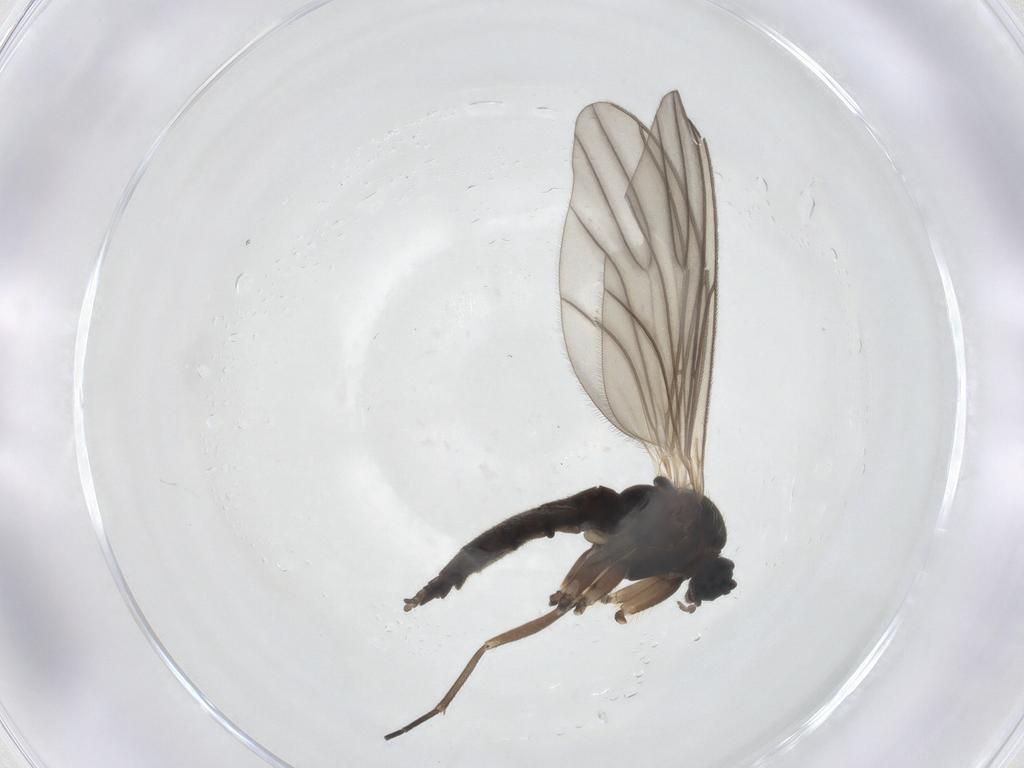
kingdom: Animalia
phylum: Arthropoda
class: Insecta
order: Diptera
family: Sciaridae
